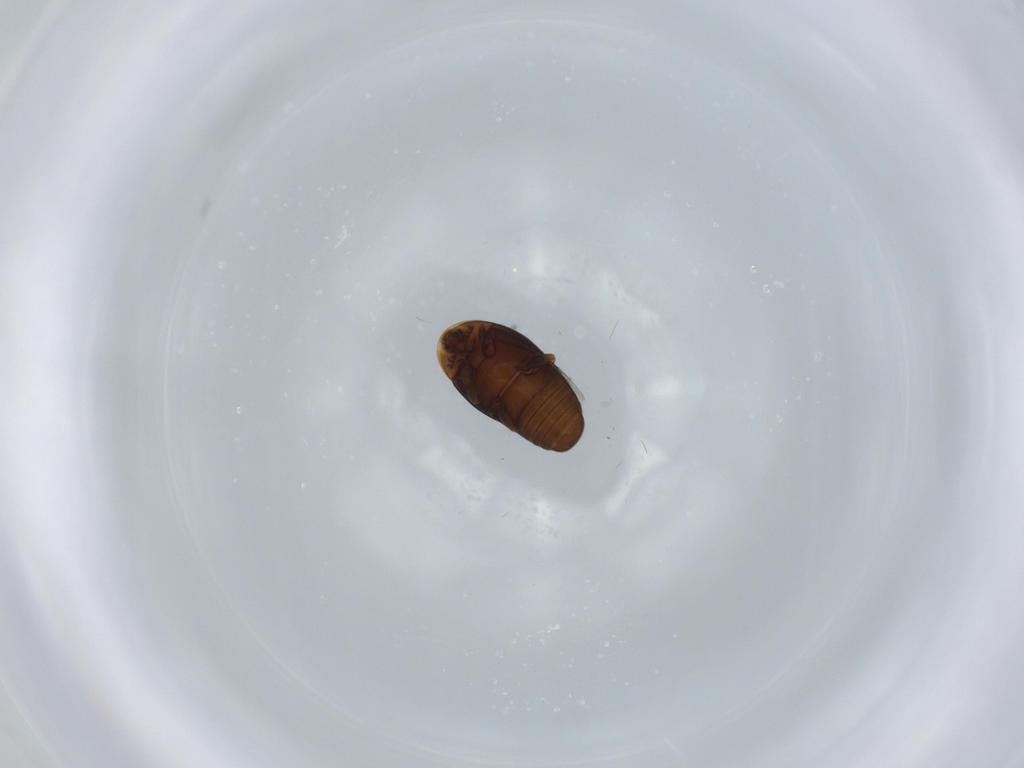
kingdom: Animalia
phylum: Arthropoda
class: Insecta
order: Coleoptera
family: Corylophidae
